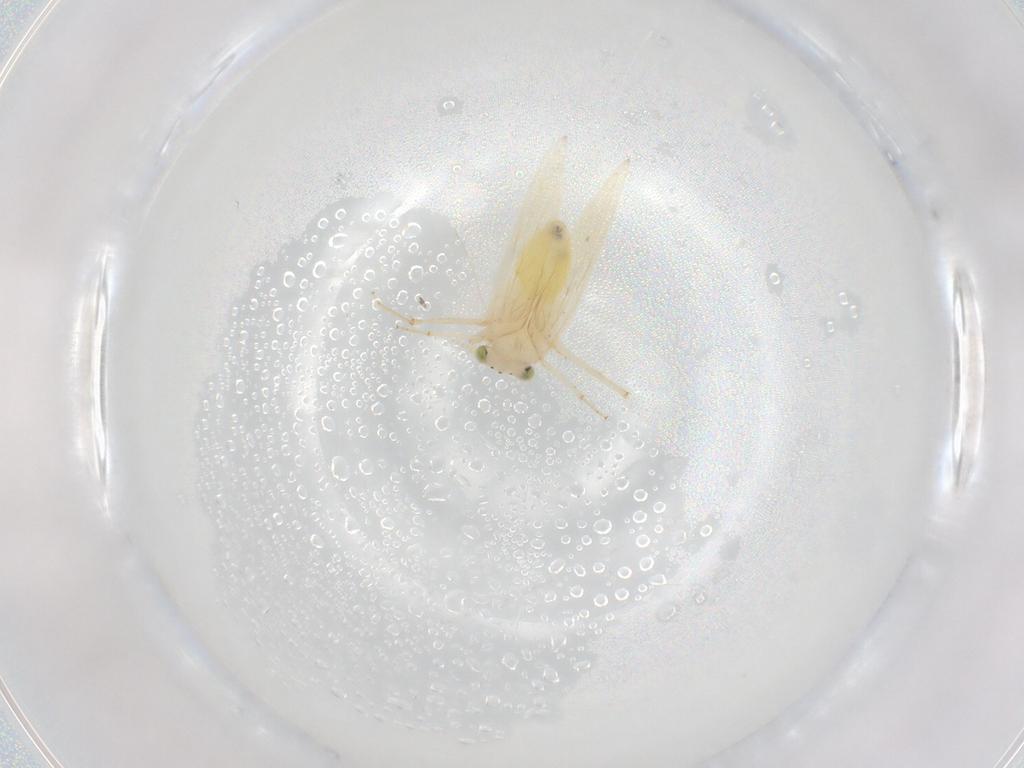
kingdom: Animalia
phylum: Arthropoda
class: Insecta
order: Psocodea
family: Lepidopsocidae
